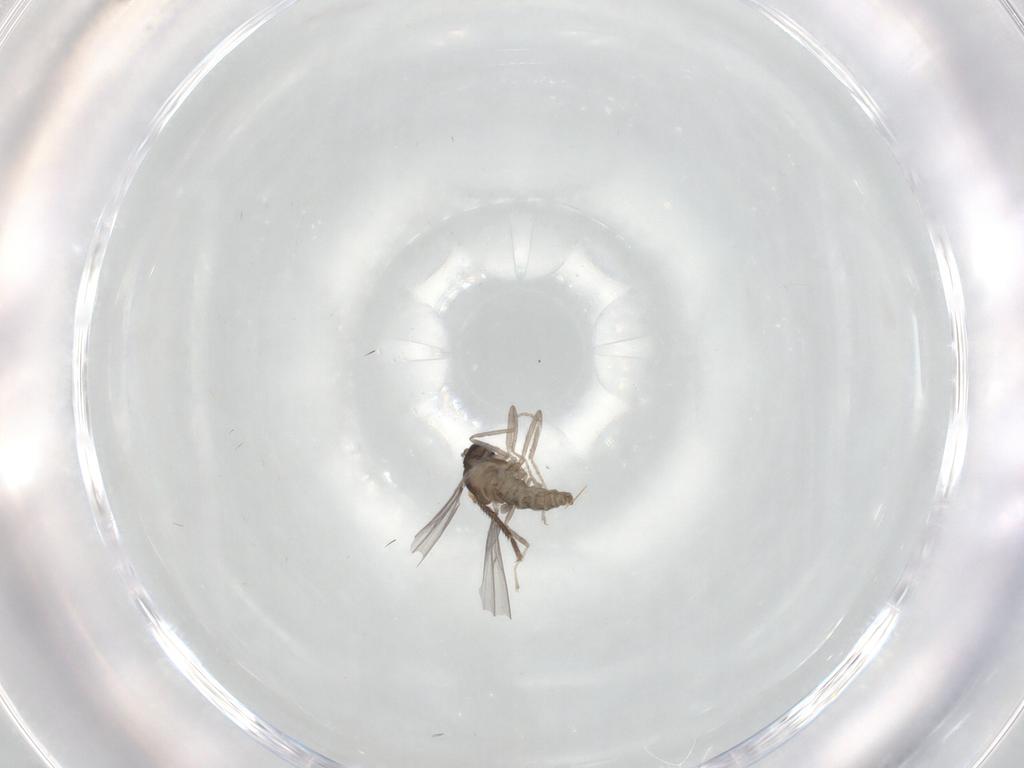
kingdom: Animalia
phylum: Arthropoda
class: Insecta
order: Diptera
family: Cecidomyiidae
